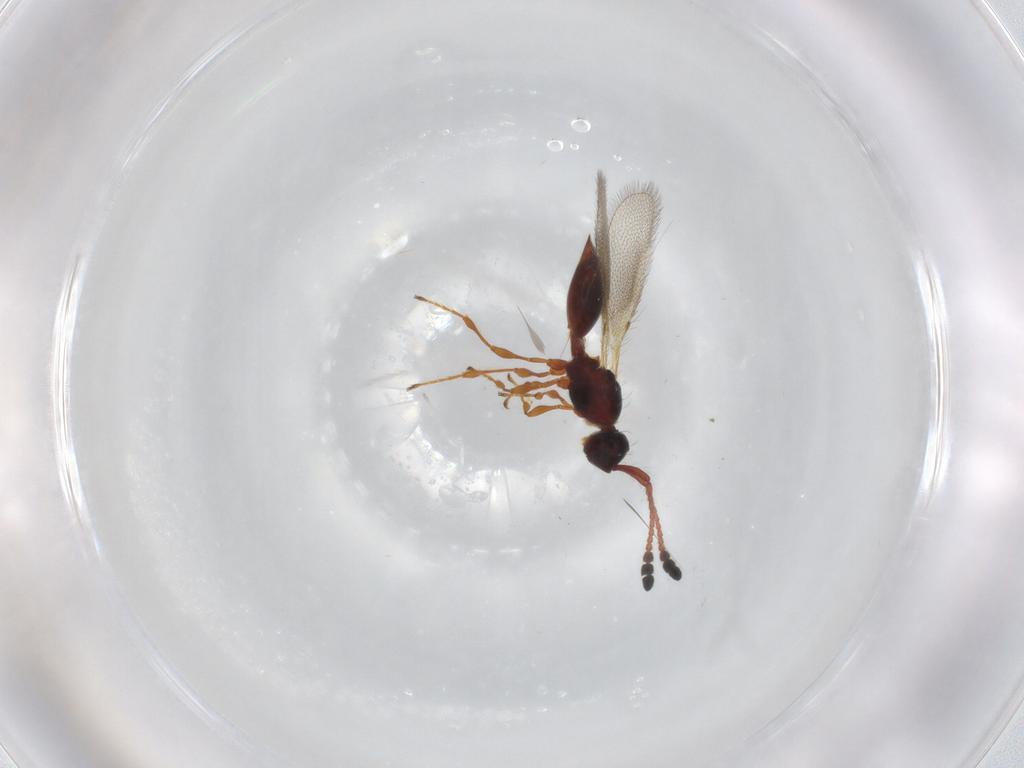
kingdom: Animalia
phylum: Arthropoda
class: Insecta
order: Hymenoptera
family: Diapriidae
